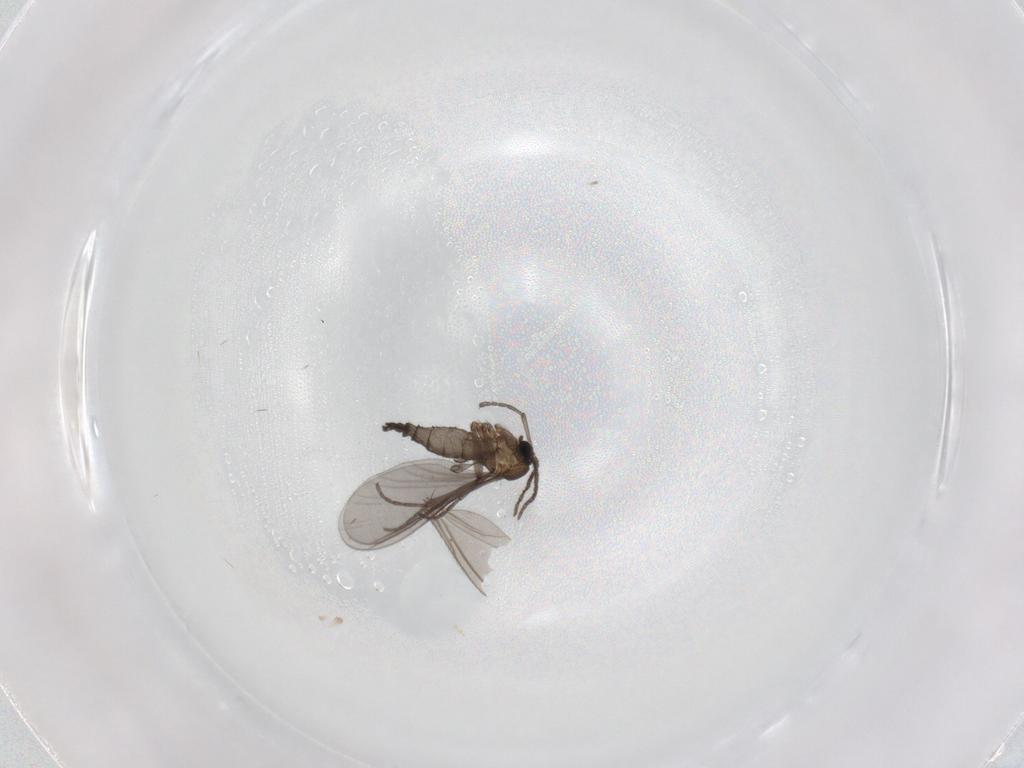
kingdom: Animalia
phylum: Arthropoda
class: Insecta
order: Diptera
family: Sciaridae
